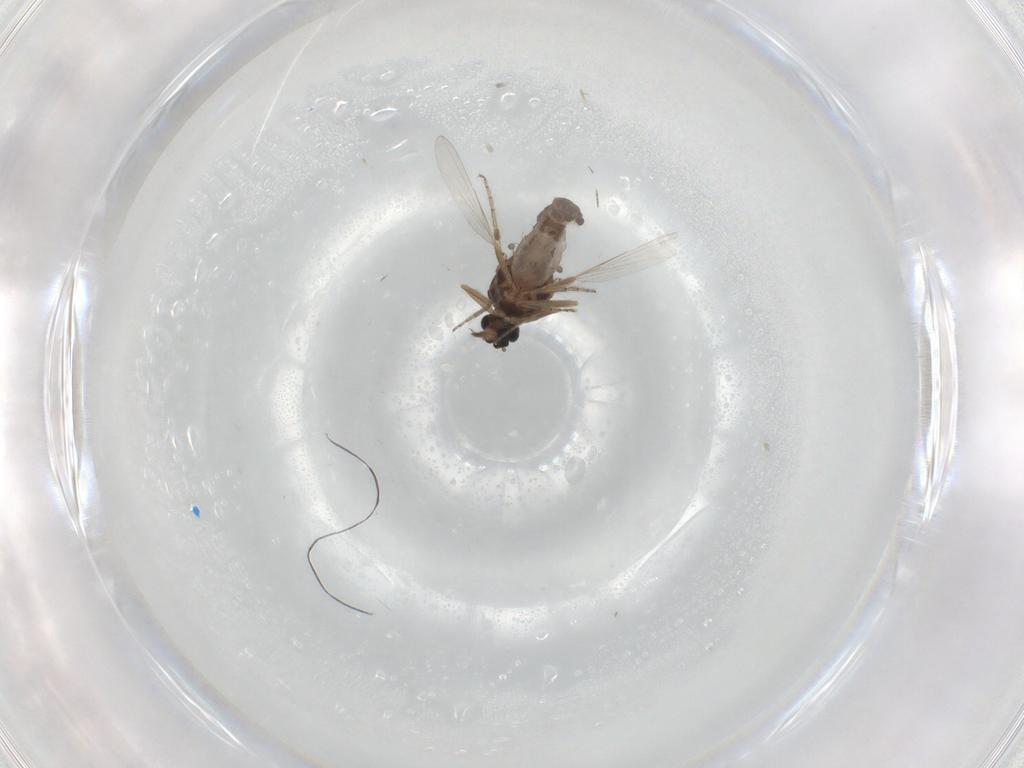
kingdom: Animalia
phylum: Arthropoda
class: Insecta
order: Diptera
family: Ceratopogonidae
